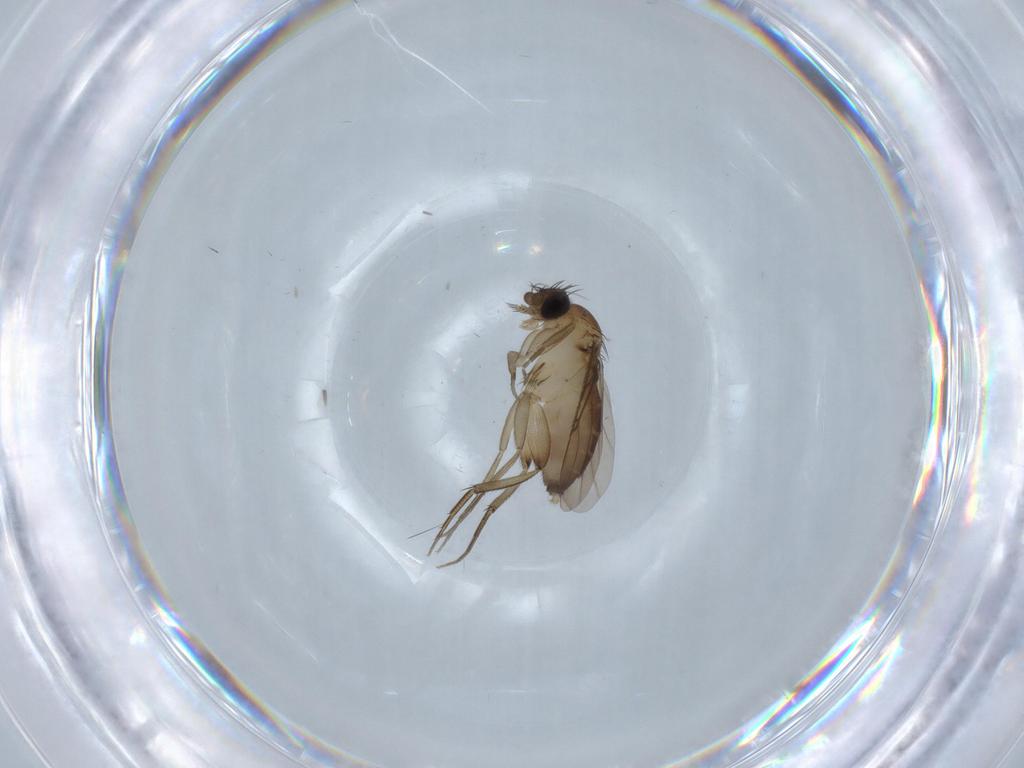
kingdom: Animalia
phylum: Arthropoda
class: Insecta
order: Diptera
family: Phoridae
